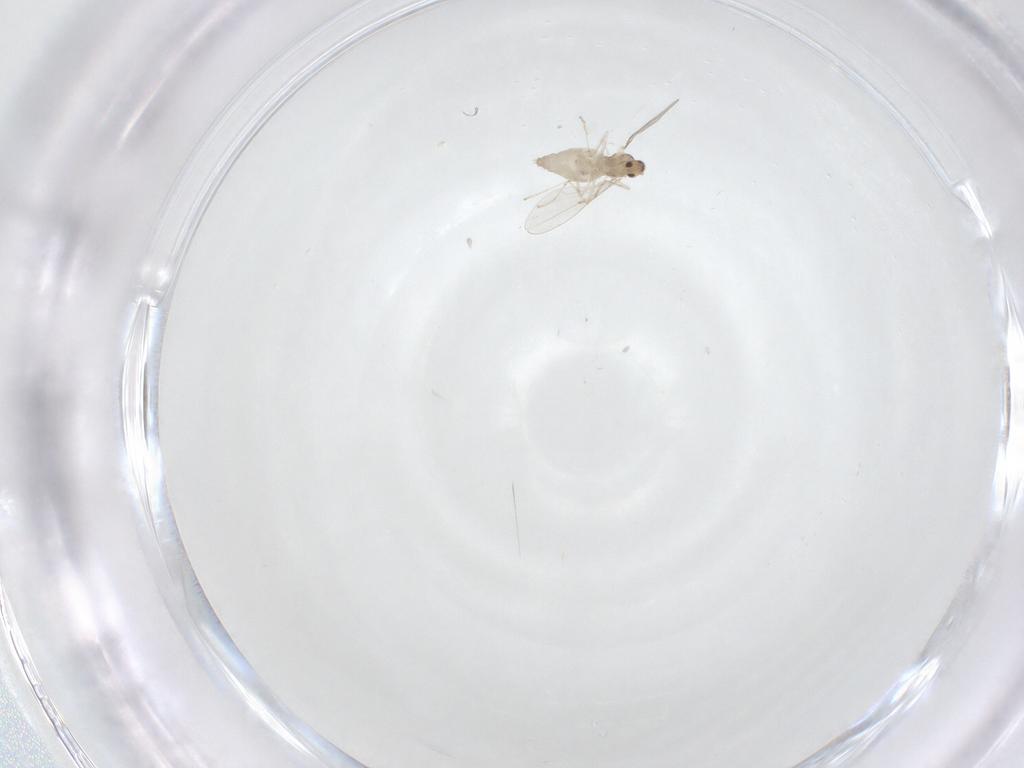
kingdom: Animalia
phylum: Arthropoda
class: Insecta
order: Diptera
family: Cecidomyiidae
